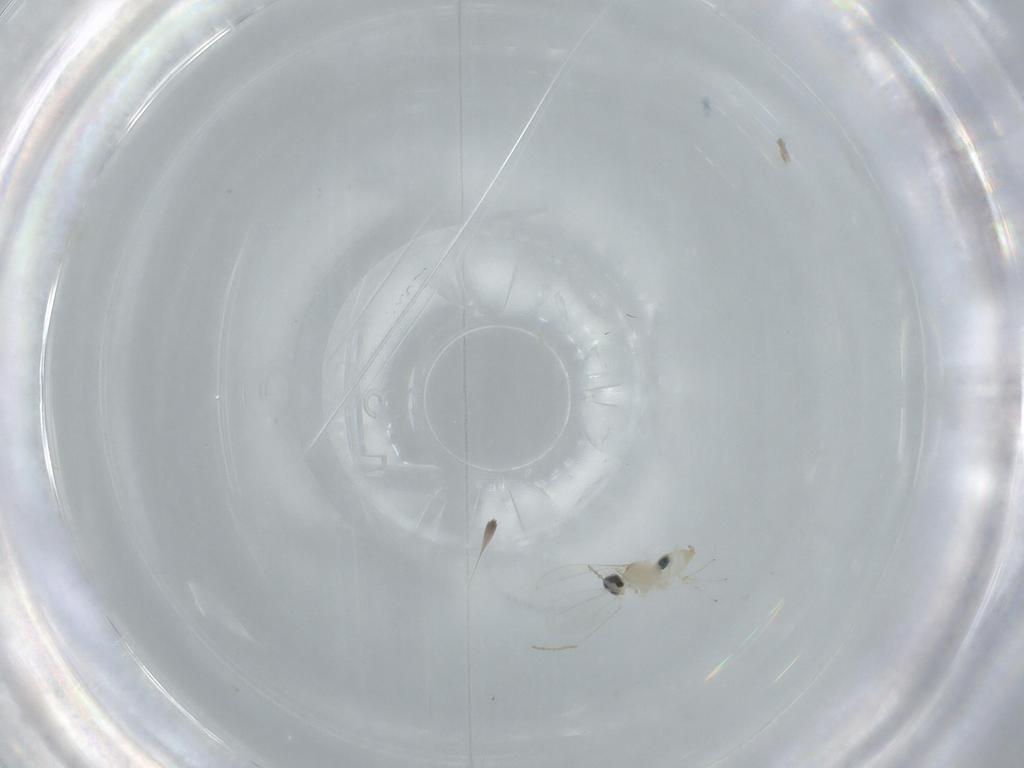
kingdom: Animalia
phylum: Arthropoda
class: Insecta
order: Diptera
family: Cecidomyiidae
